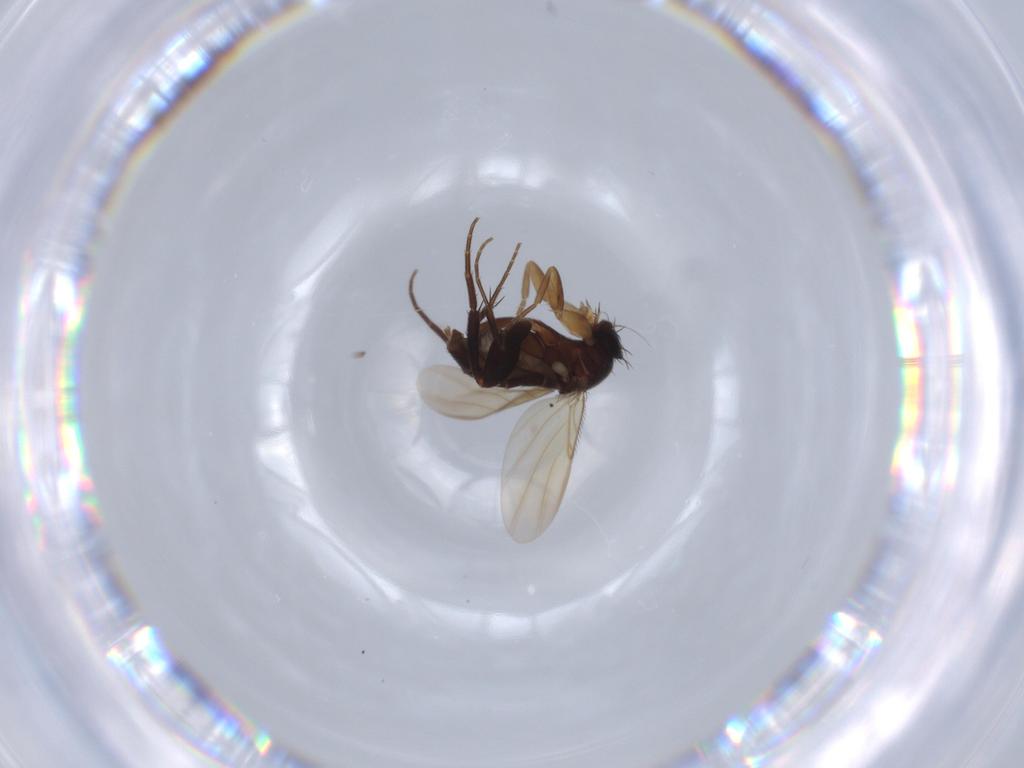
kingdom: Animalia
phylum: Arthropoda
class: Insecta
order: Diptera
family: Phoridae
